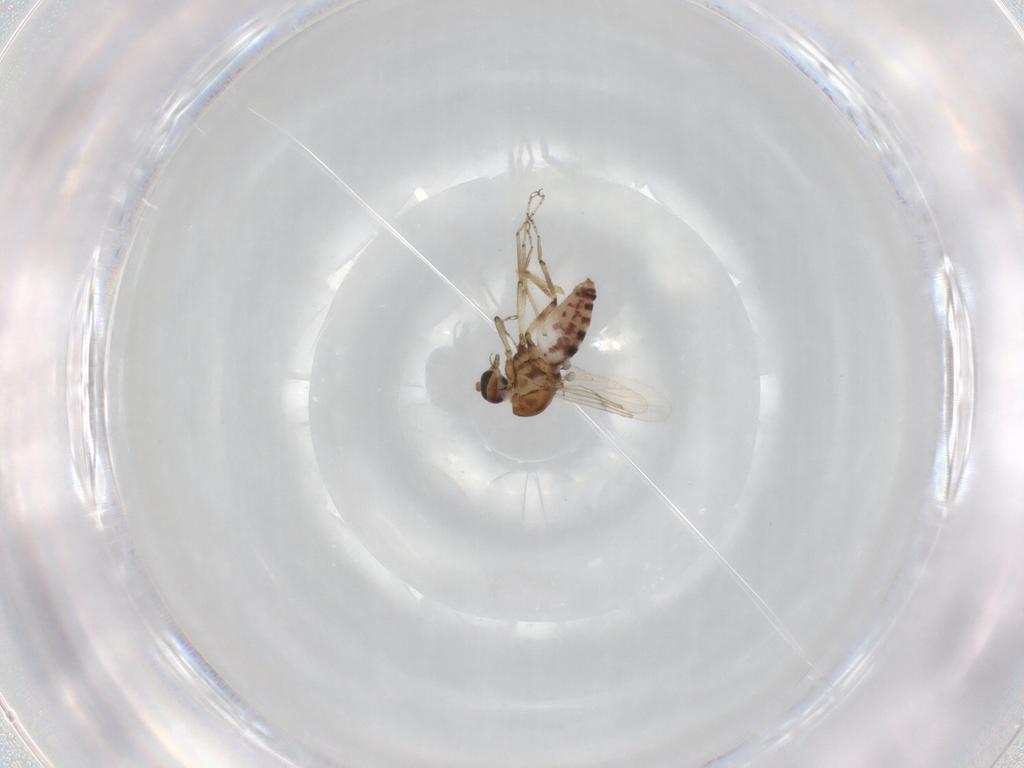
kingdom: Animalia
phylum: Arthropoda
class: Insecta
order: Diptera
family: Ceratopogonidae
